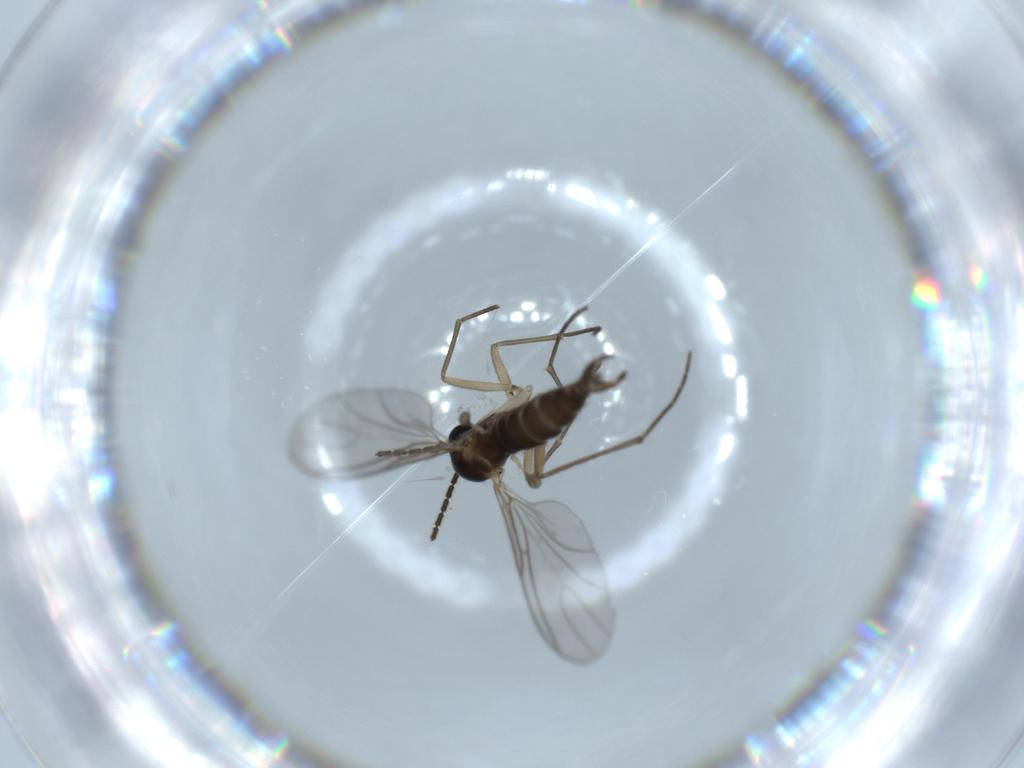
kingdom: Animalia
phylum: Arthropoda
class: Insecta
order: Diptera
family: Sciaridae
